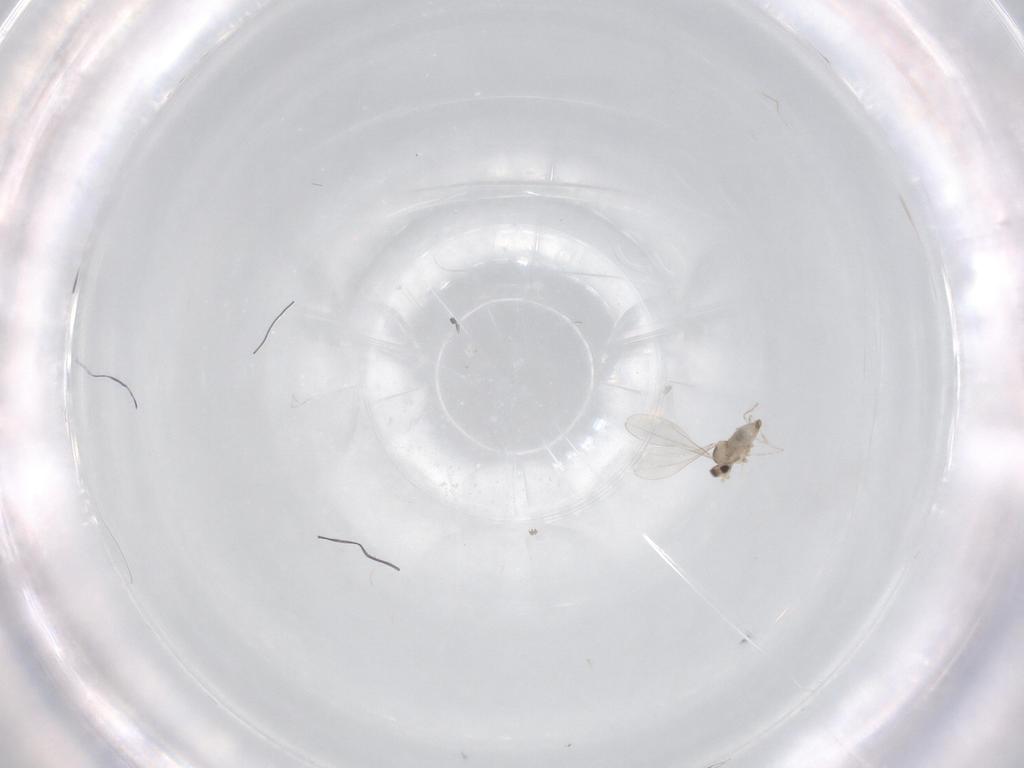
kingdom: Animalia
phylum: Arthropoda
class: Insecta
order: Diptera
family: Cecidomyiidae
